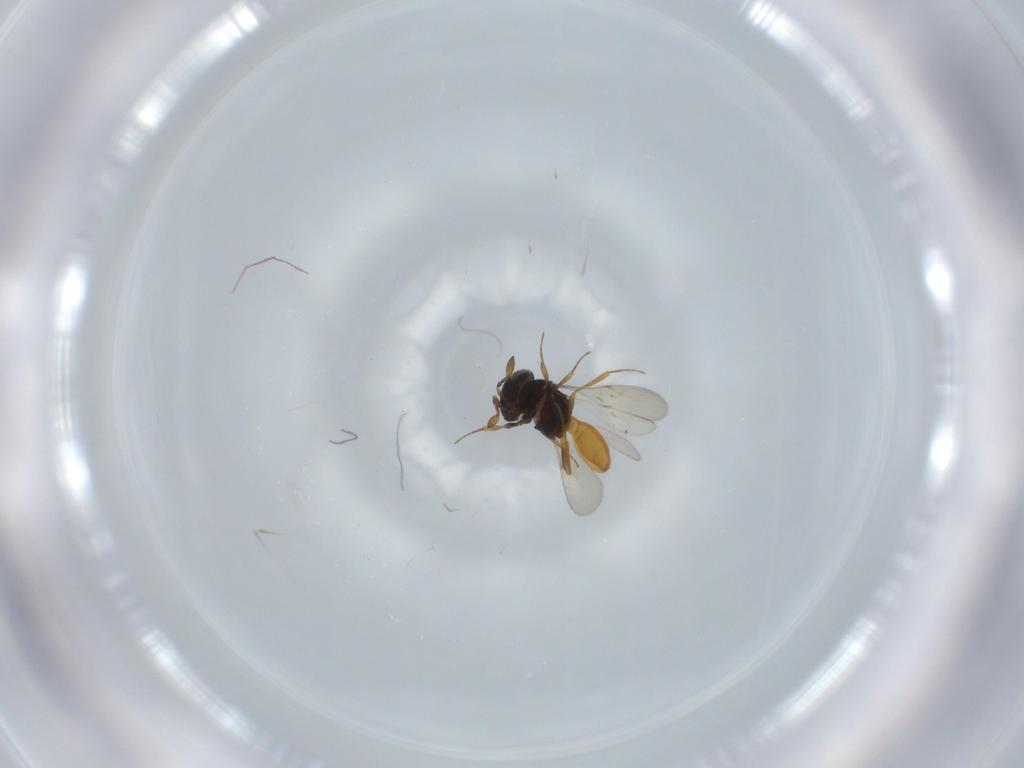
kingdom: Animalia
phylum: Arthropoda
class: Insecta
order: Hymenoptera
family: Scelionidae
